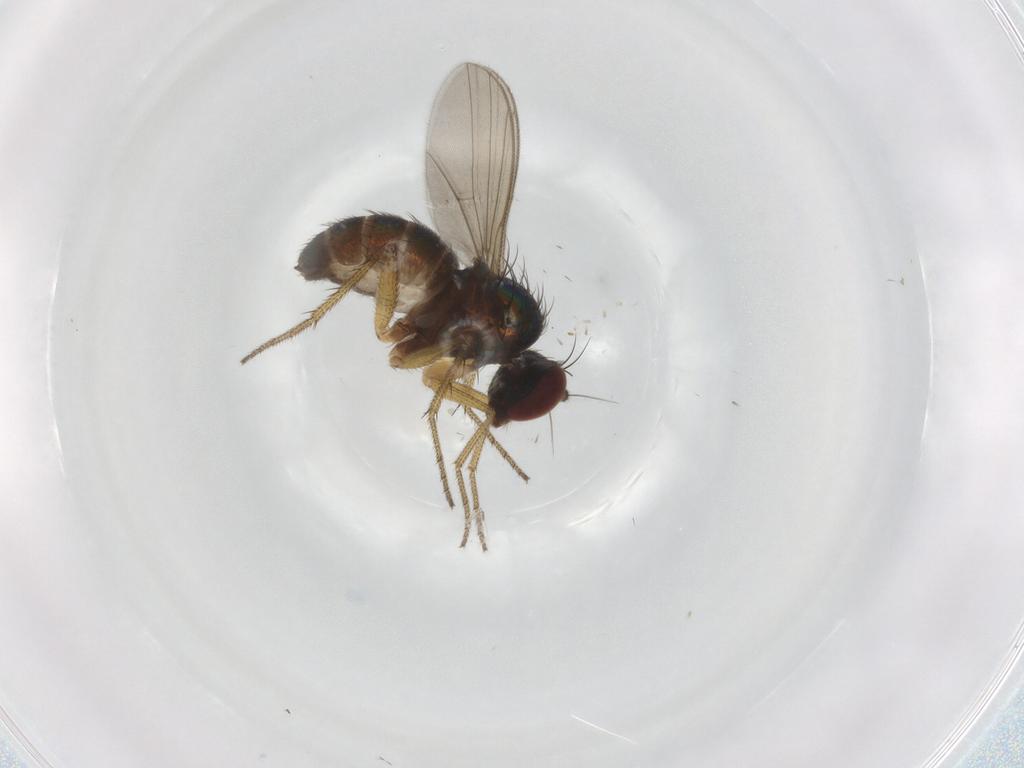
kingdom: Animalia
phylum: Arthropoda
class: Insecta
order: Diptera
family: Dolichopodidae
